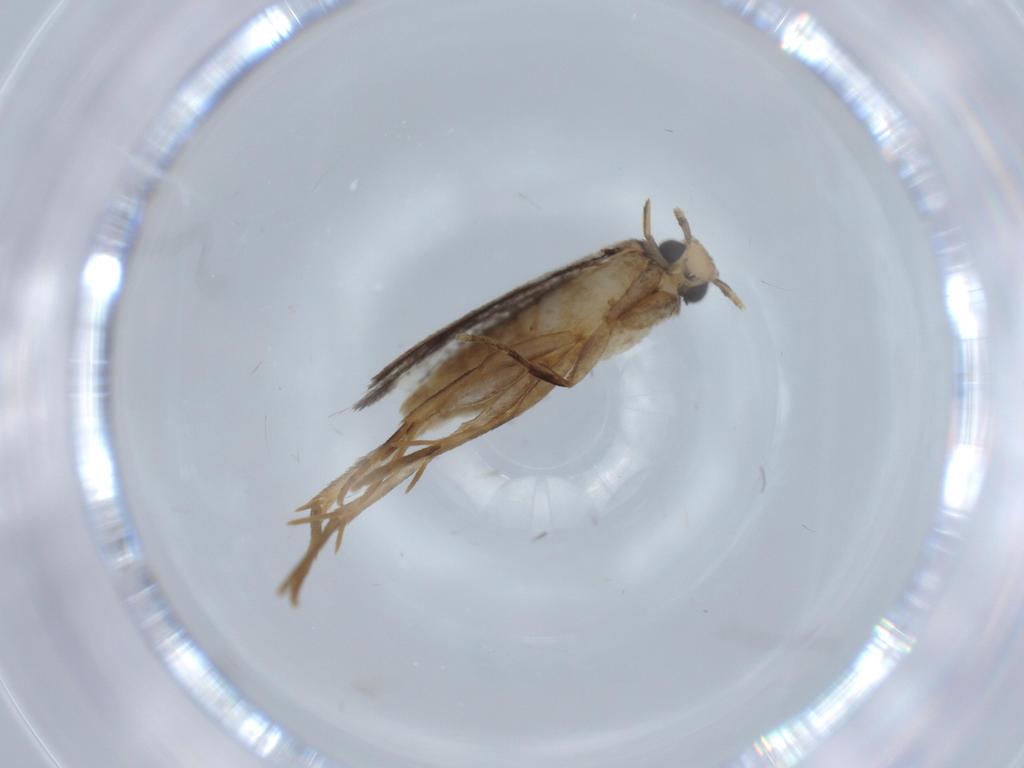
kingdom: Animalia
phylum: Arthropoda
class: Insecta
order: Lepidoptera
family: Tineidae
